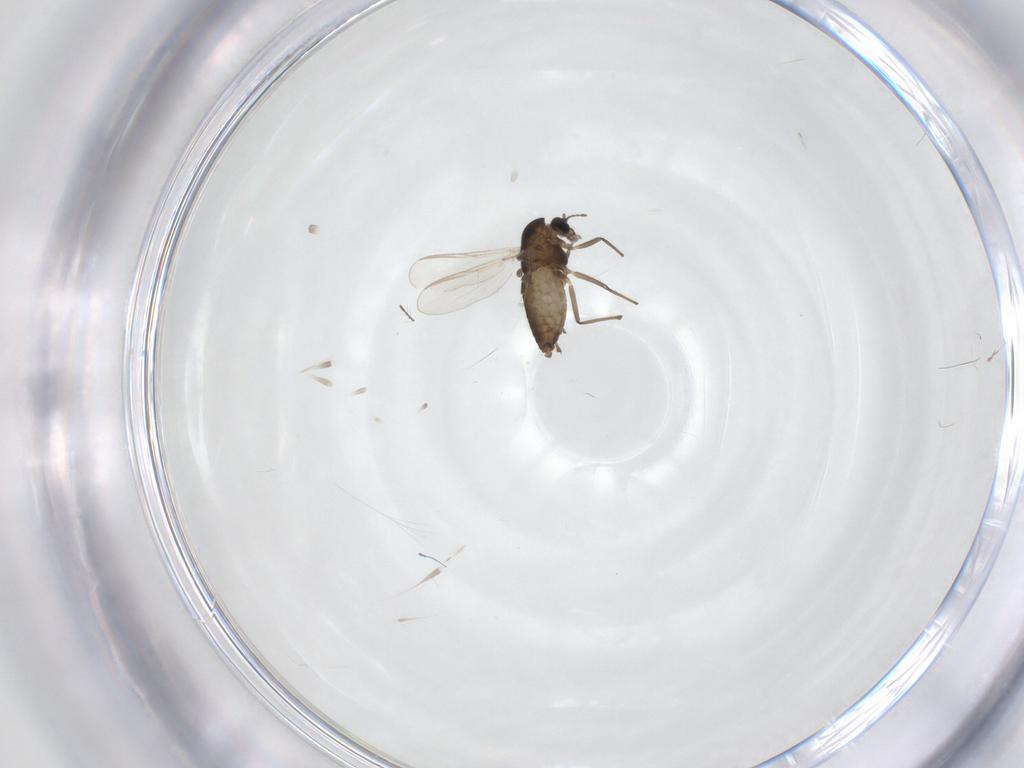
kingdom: Animalia
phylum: Arthropoda
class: Insecta
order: Diptera
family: Chironomidae
